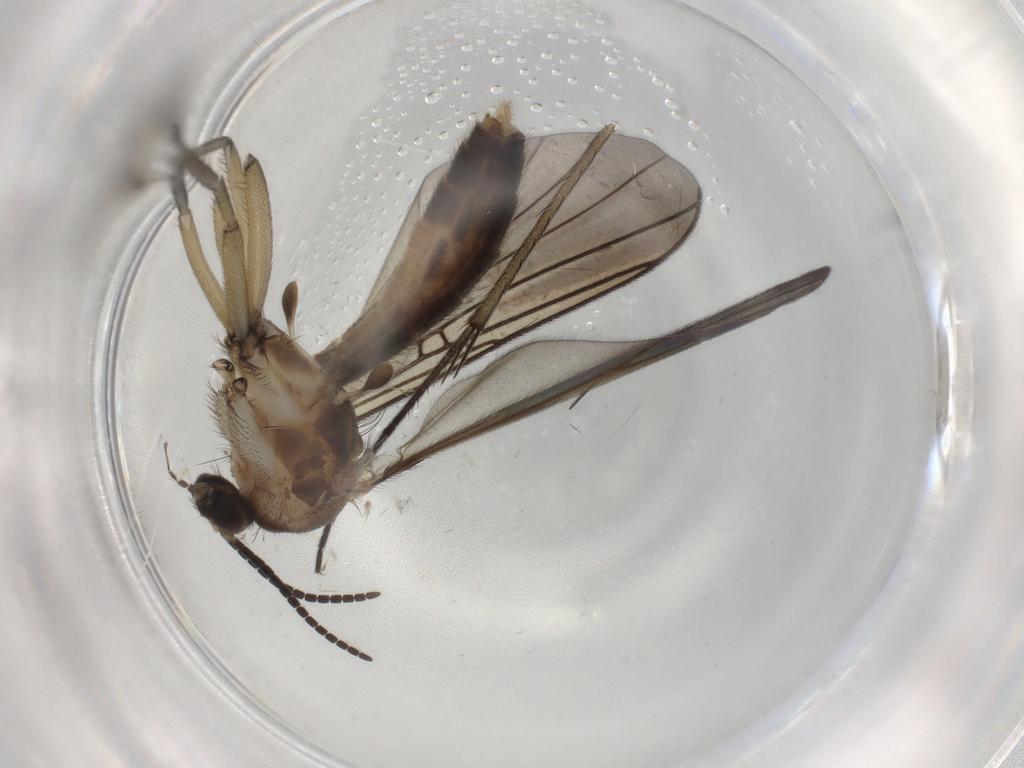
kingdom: Animalia
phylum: Arthropoda
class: Insecta
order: Diptera
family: Chironomidae
